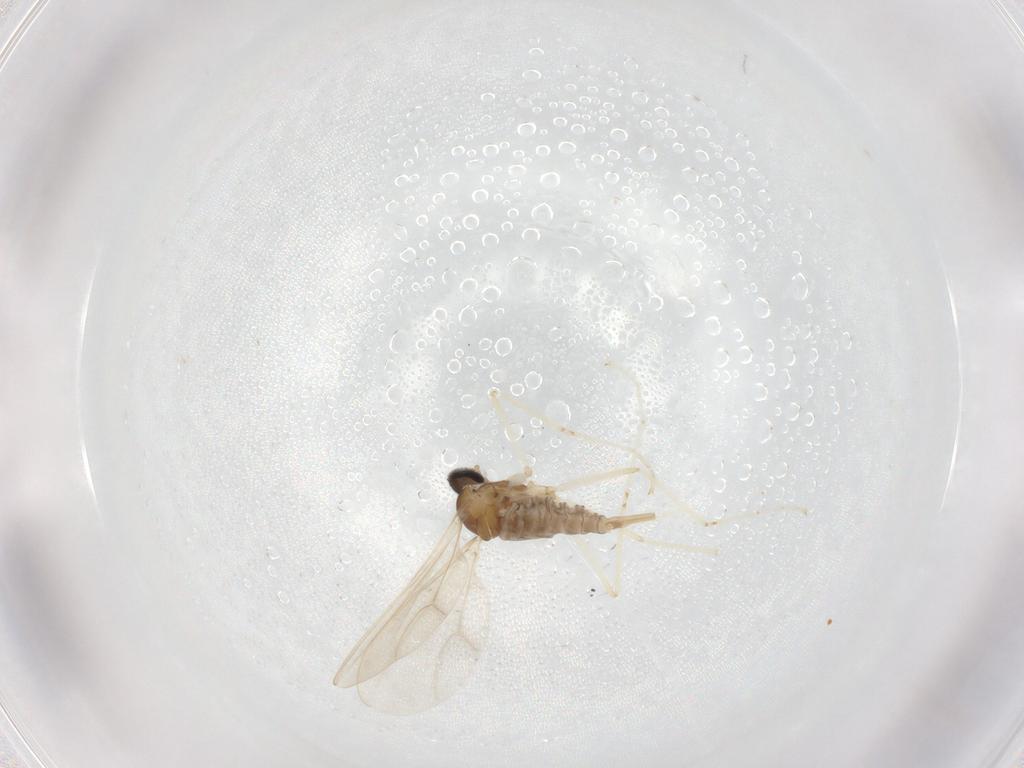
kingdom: Animalia
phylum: Arthropoda
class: Insecta
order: Diptera
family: Cecidomyiidae
